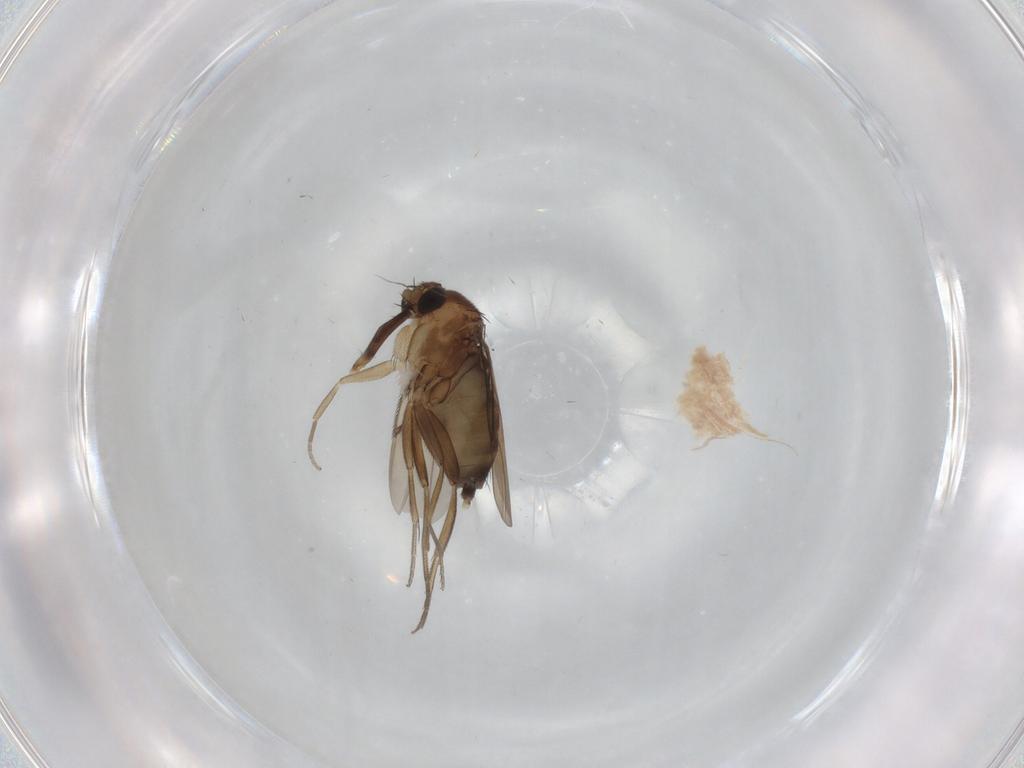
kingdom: Animalia
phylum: Arthropoda
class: Insecta
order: Diptera
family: Phoridae
